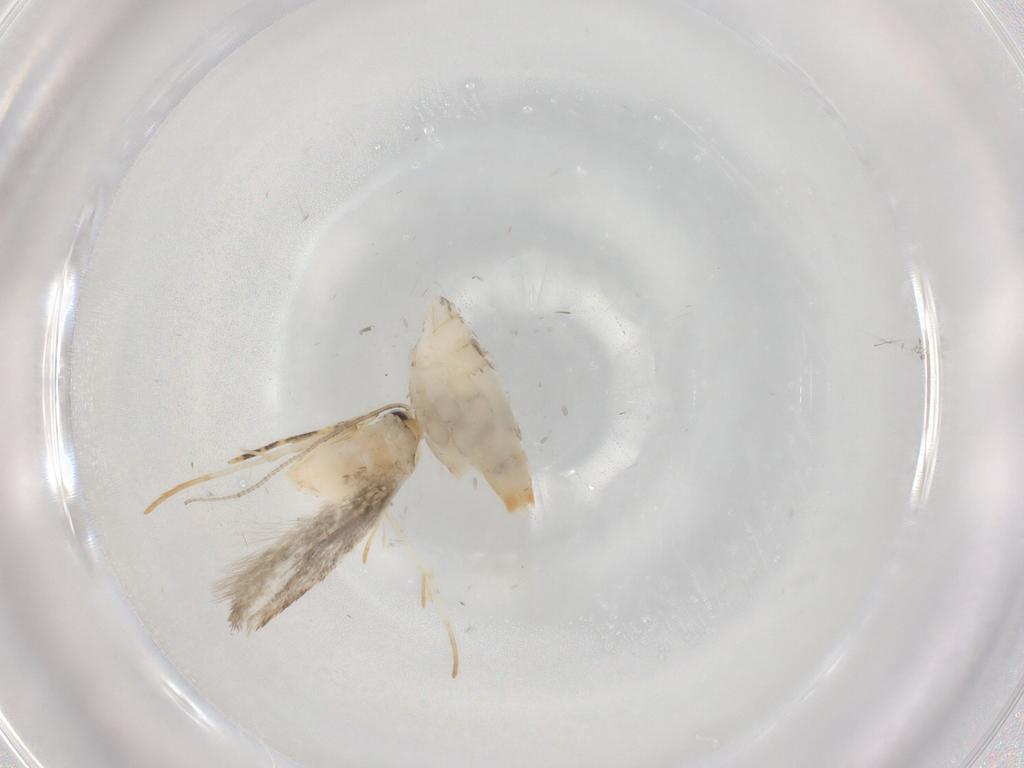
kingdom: Animalia
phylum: Arthropoda
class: Insecta
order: Lepidoptera
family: Tineidae
